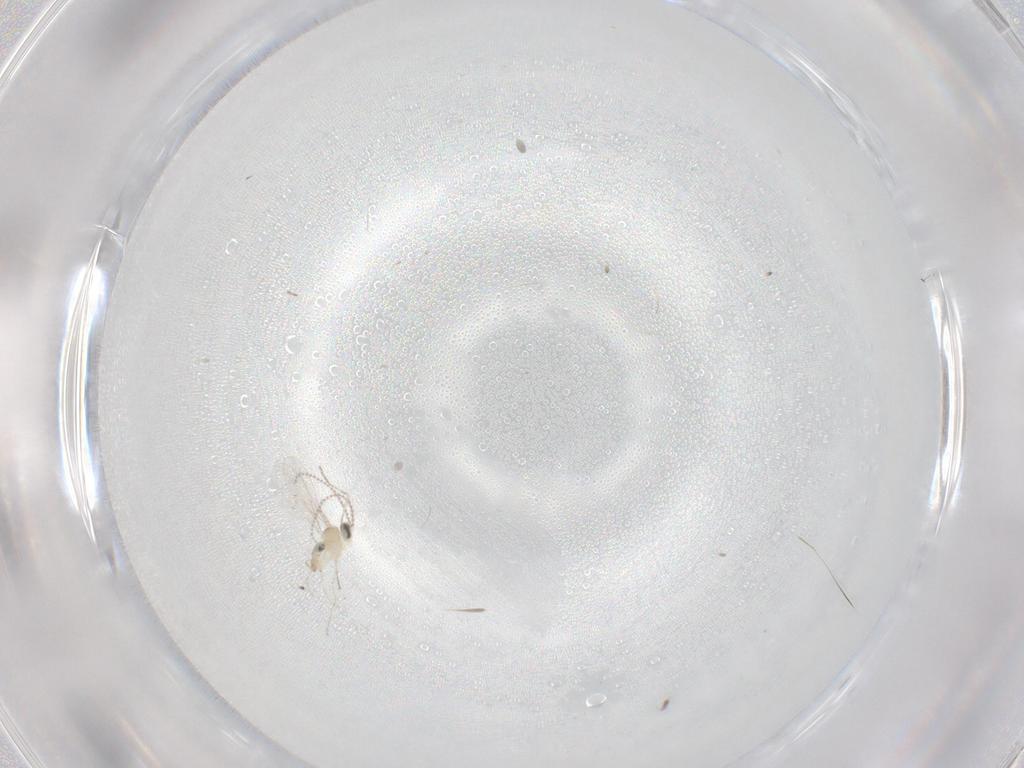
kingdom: Animalia
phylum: Arthropoda
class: Insecta
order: Diptera
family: Cecidomyiidae
